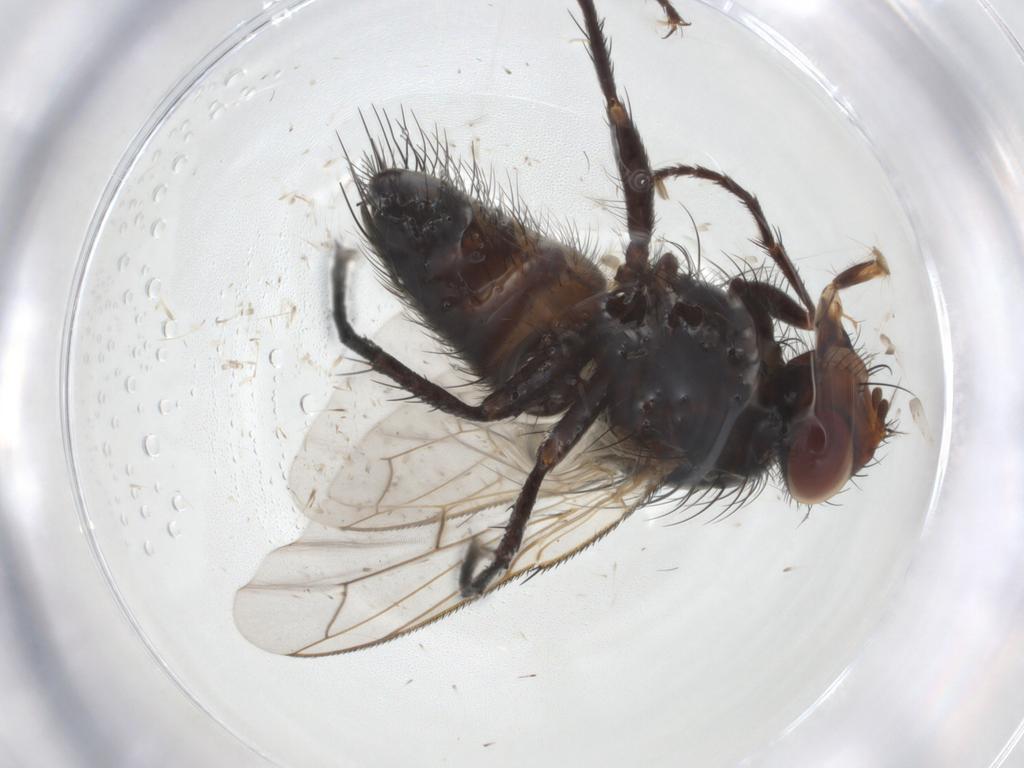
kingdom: Animalia
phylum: Arthropoda
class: Insecta
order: Diptera
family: Tachinidae
